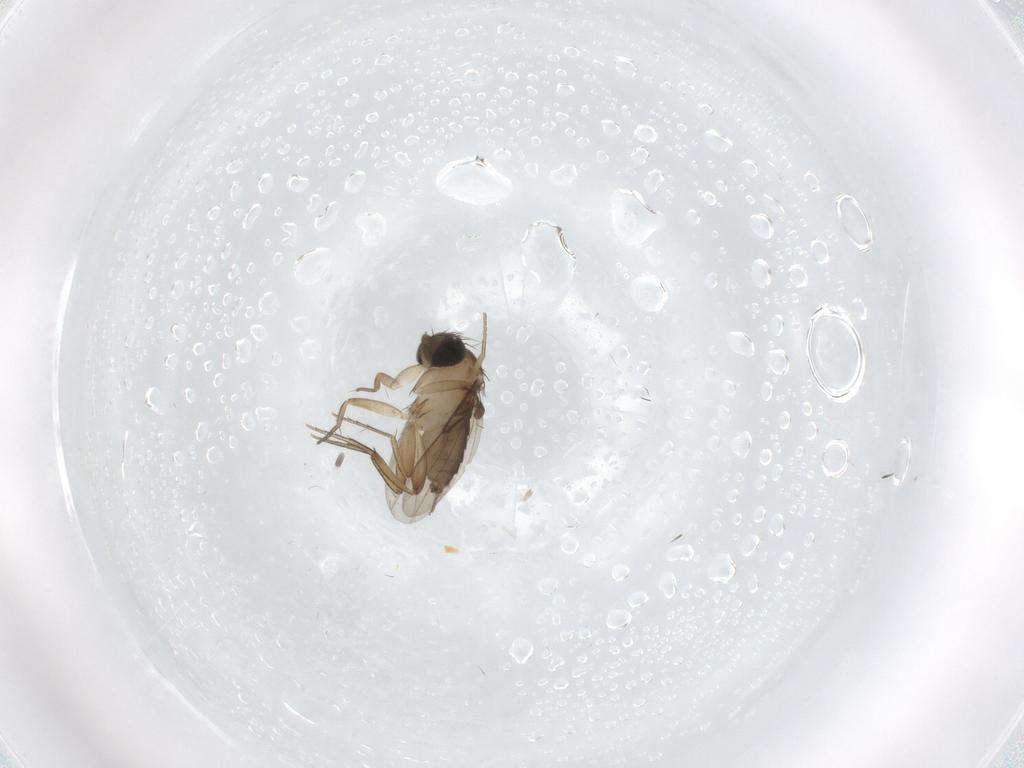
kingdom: Animalia
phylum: Arthropoda
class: Insecta
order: Diptera
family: Phoridae
